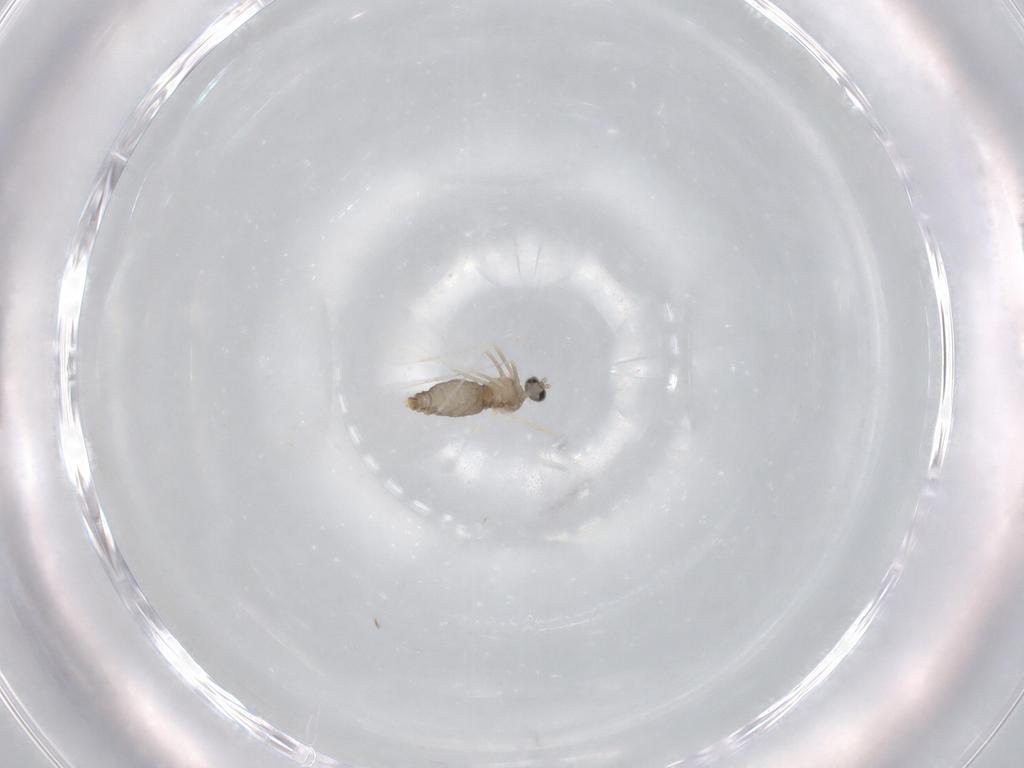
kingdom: Animalia
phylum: Arthropoda
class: Insecta
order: Diptera
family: Cecidomyiidae
